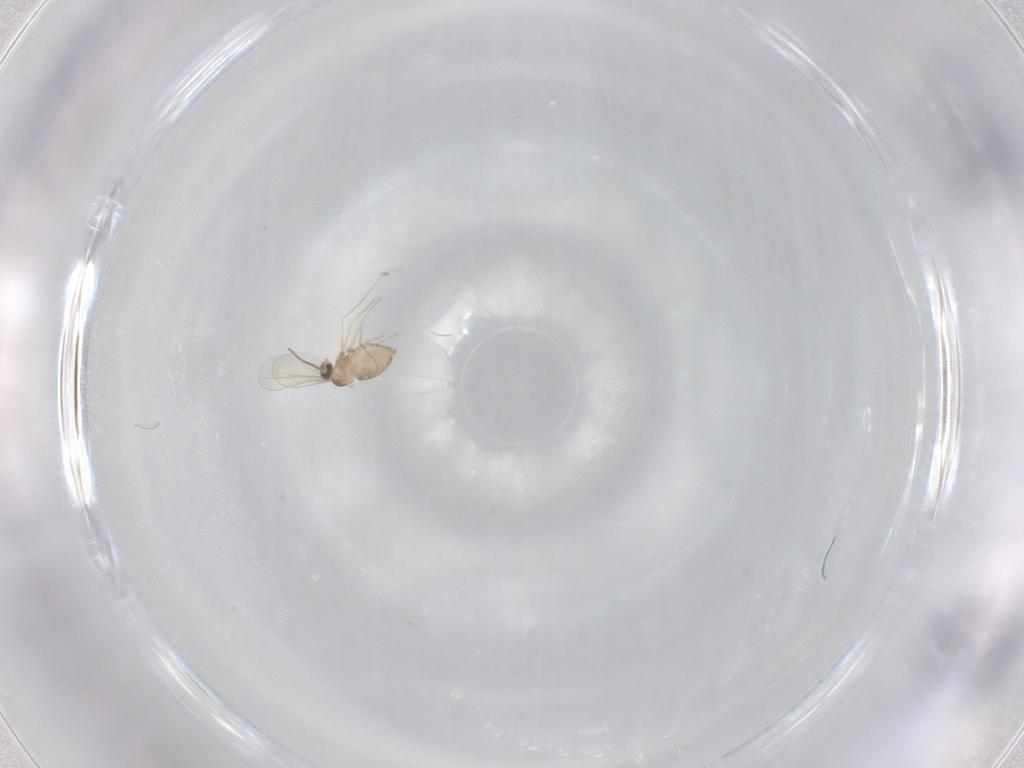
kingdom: Animalia
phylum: Arthropoda
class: Insecta
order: Diptera
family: Cecidomyiidae
